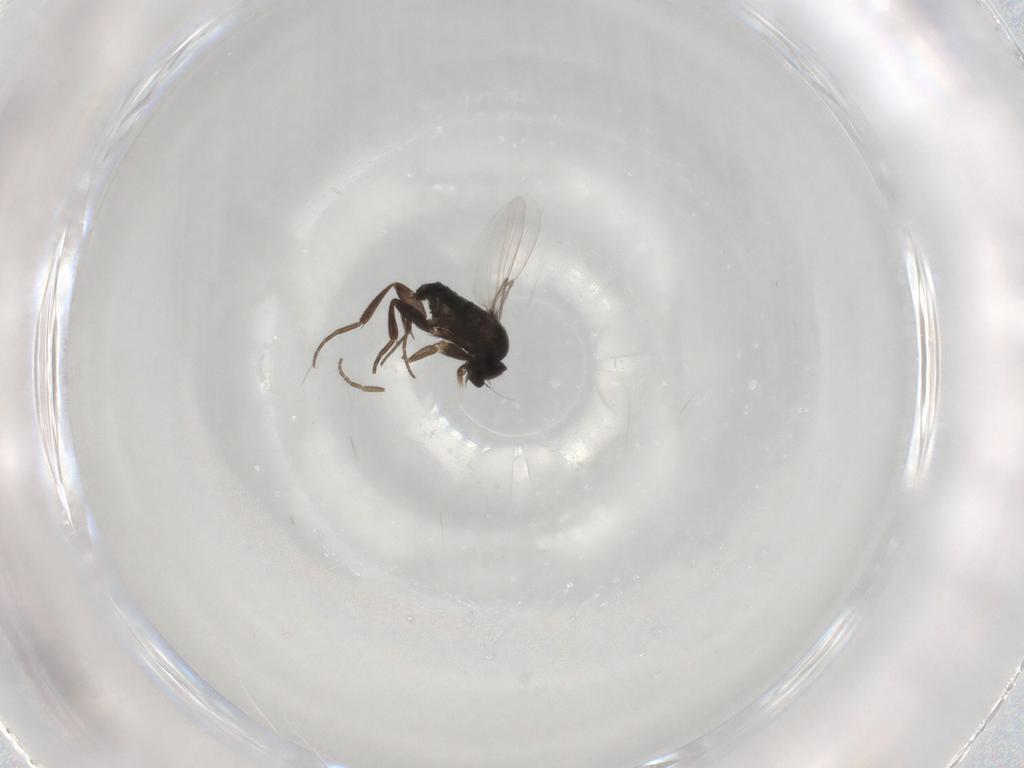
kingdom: Animalia
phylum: Arthropoda
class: Insecta
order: Diptera
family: Phoridae
